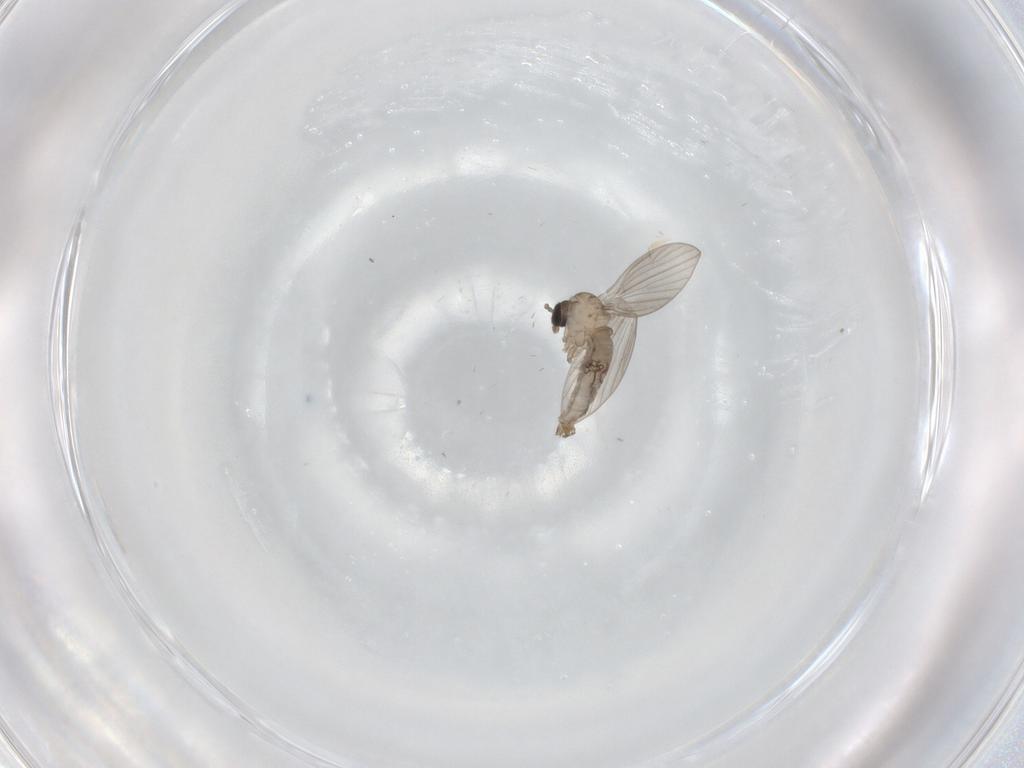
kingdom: Animalia
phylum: Arthropoda
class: Insecta
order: Diptera
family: Psychodidae
